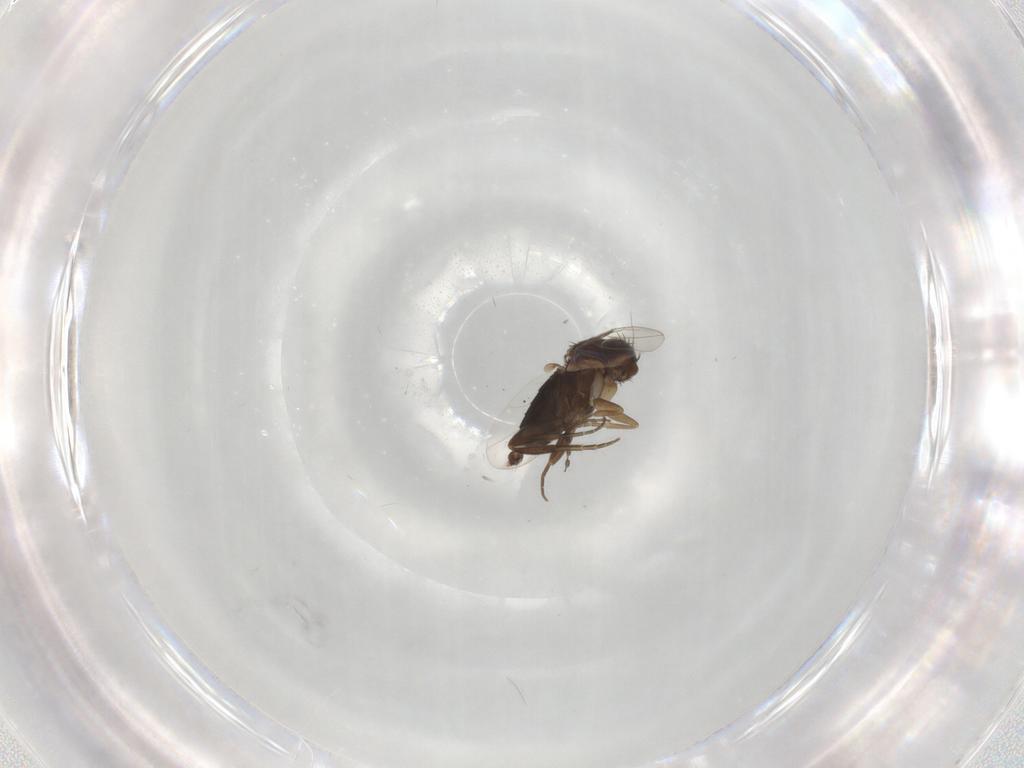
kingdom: Animalia
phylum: Arthropoda
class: Insecta
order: Diptera
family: Phoridae
